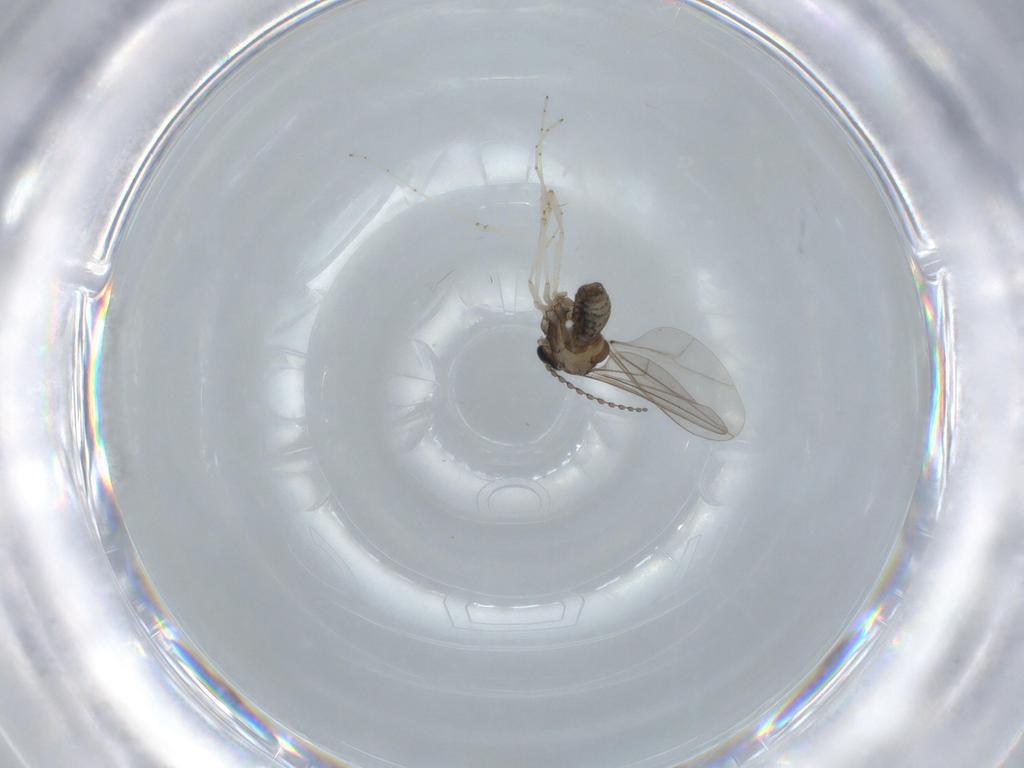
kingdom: Animalia
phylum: Arthropoda
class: Insecta
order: Diptera
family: Cecidomyiidae
